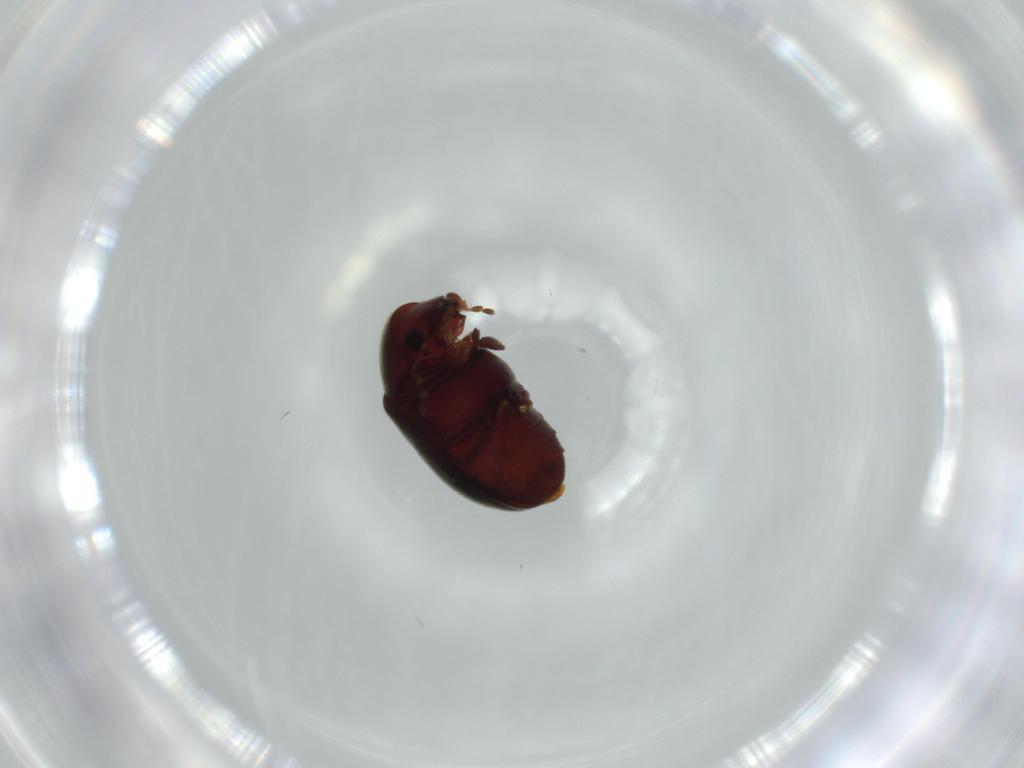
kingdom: Animalia
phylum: Arthropoda
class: Insecta
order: Coleoptera
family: Ptinidae
